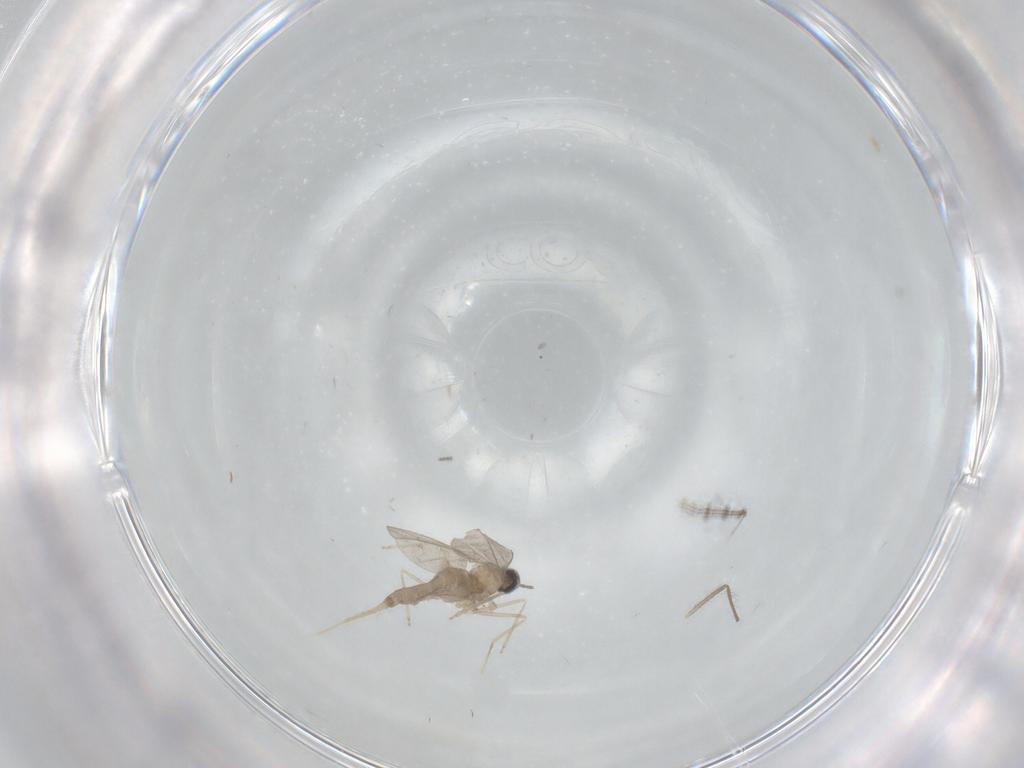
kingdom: Animalia
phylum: Arthropoda
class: Insecta
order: Diptera
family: Cecidomyiidae
